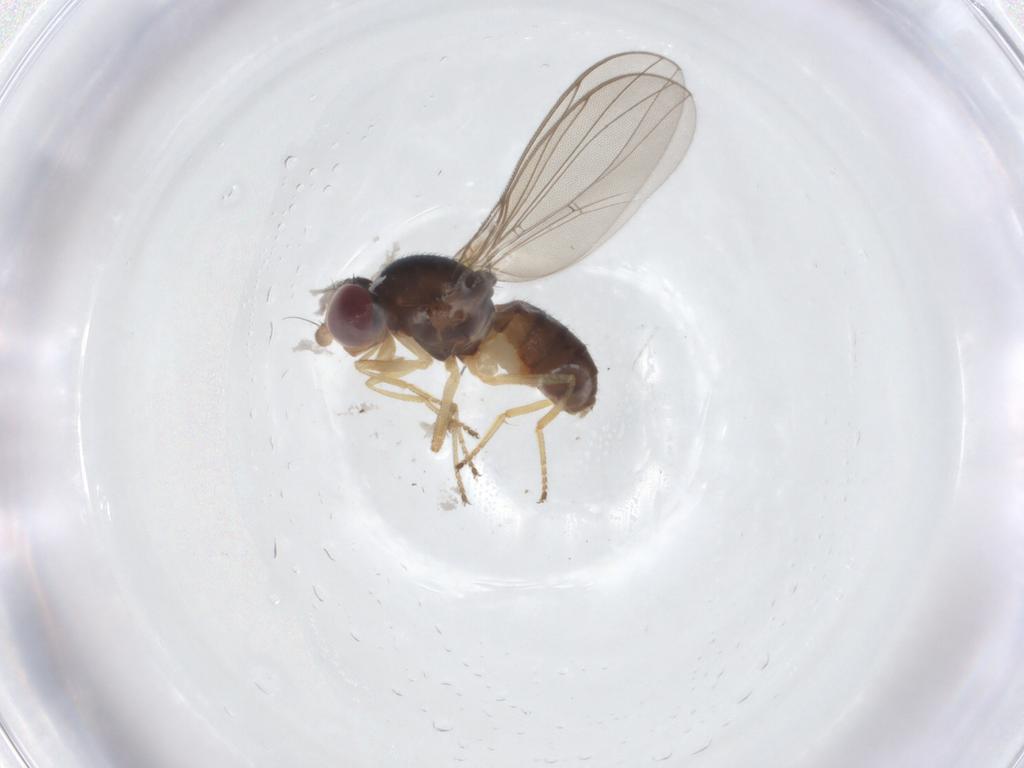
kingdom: Animalia
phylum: Arthropoda
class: Insecta
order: Diptera
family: Asteiidae
